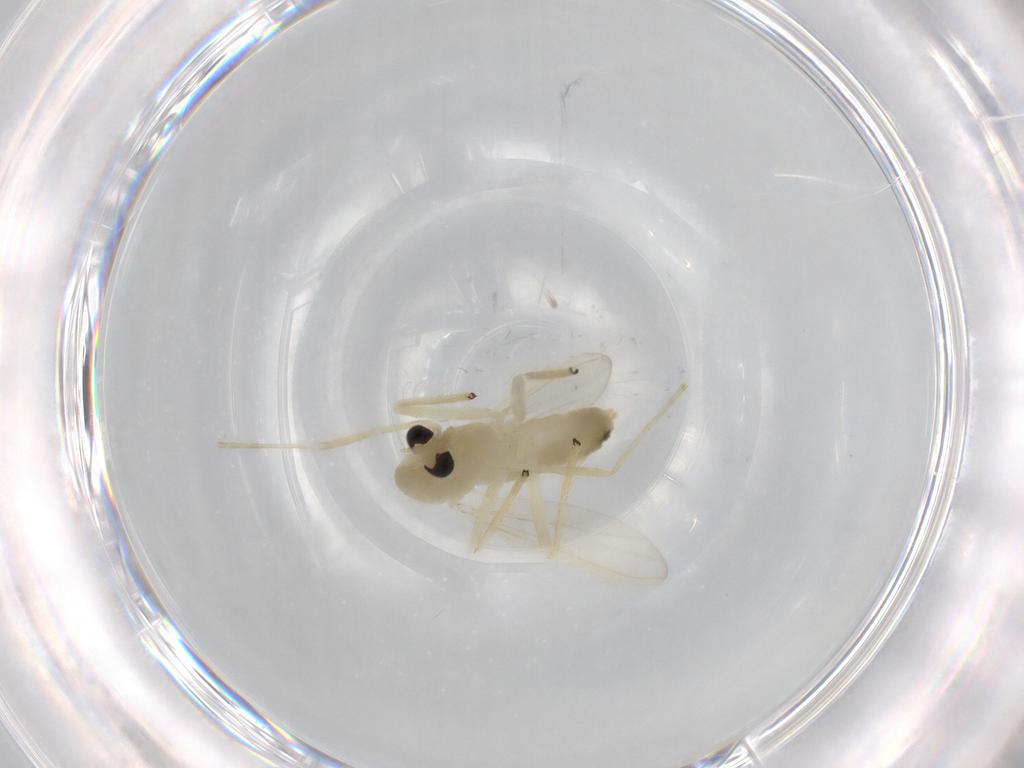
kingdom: Animalia
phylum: Arthropoda
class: Insecta
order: Diptera
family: Chironomidae
